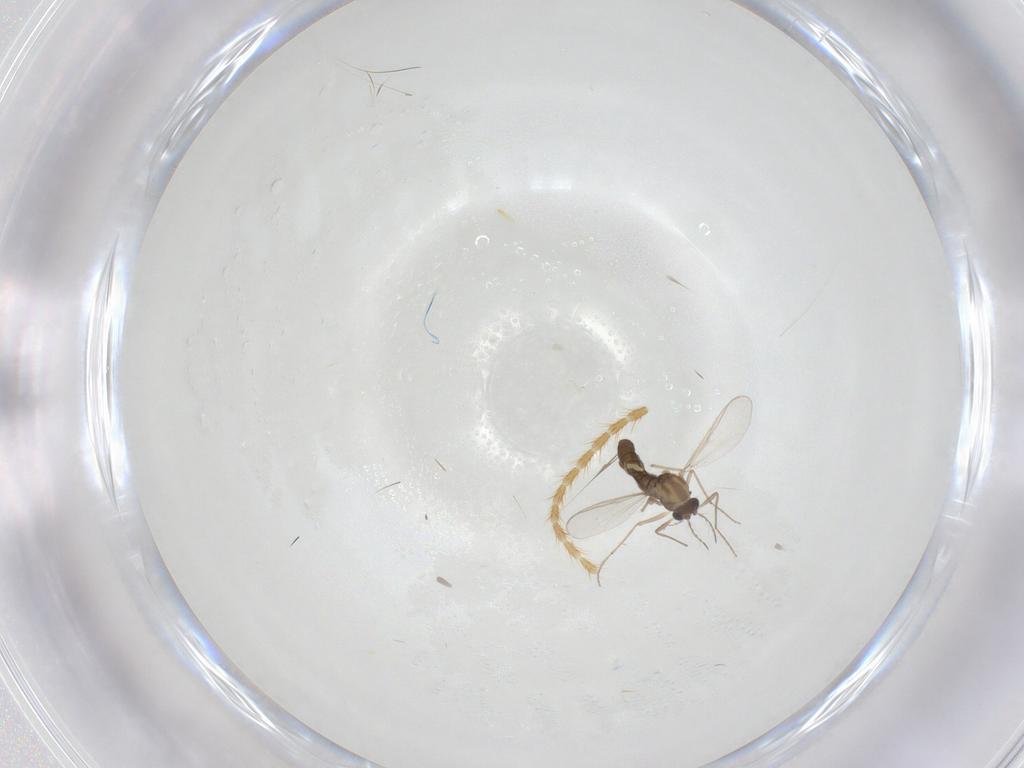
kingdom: Animalia
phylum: Arthropoda
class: Insecta
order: Diptera
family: Chironomidae
